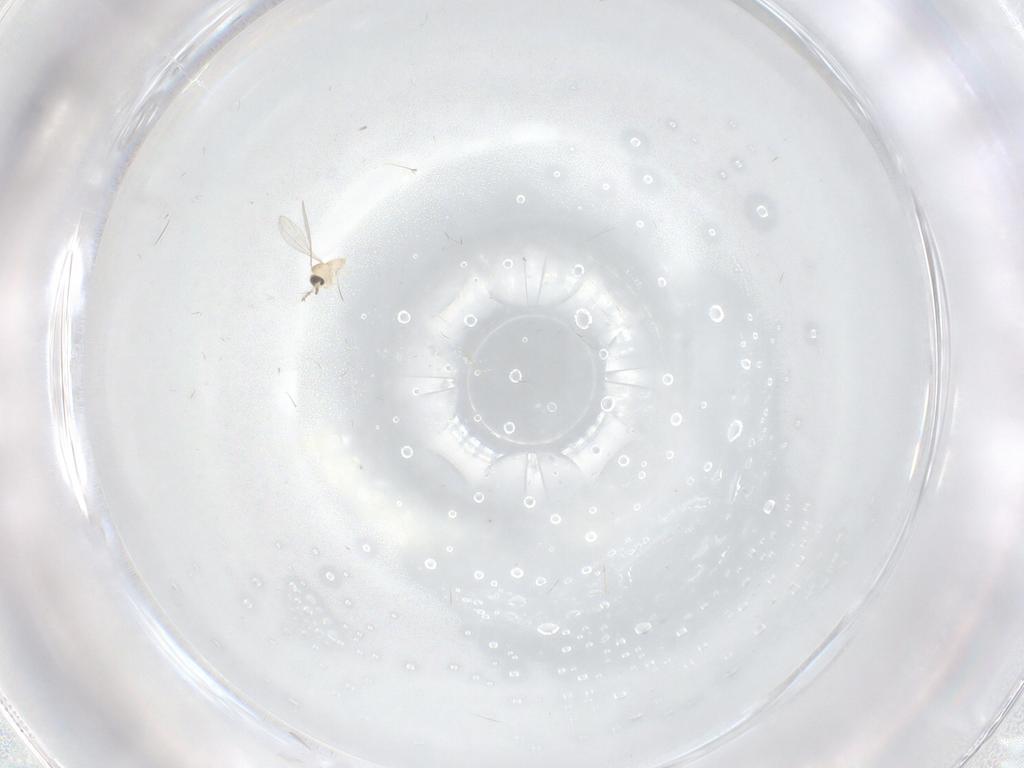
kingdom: Animalia
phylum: Arthropoda
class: Insecta
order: Diptera
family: Cecidomyiidae
